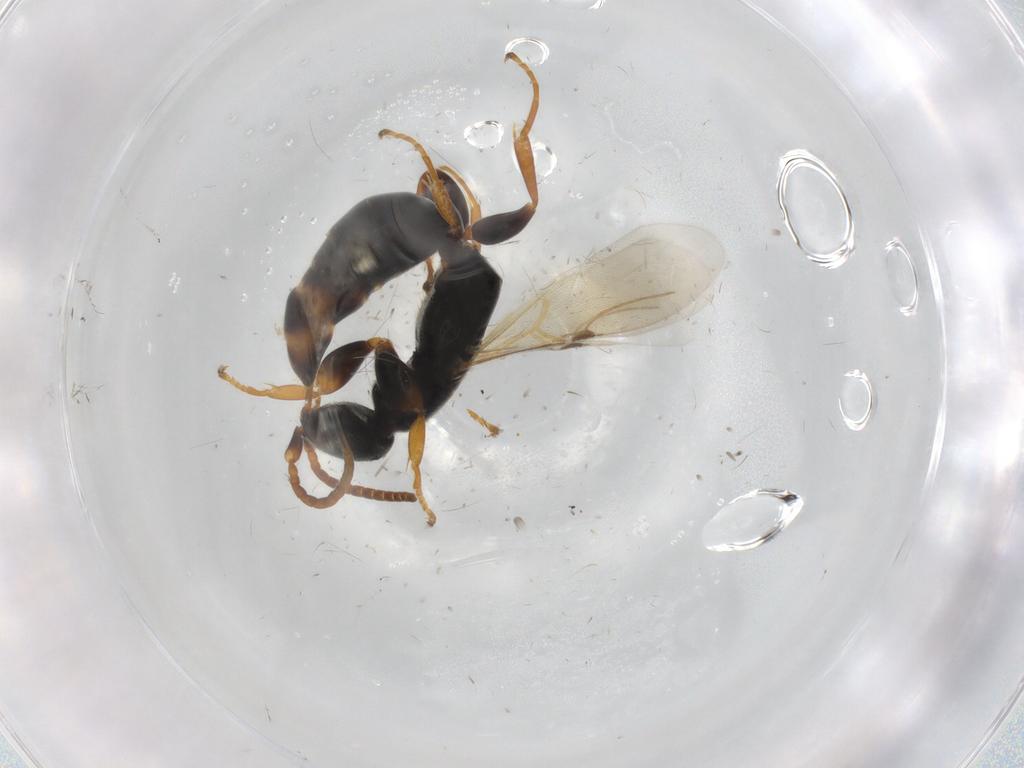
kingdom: Animalia
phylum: Arthropoda
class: Insecta
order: Hymenoptera
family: Bethylidae
